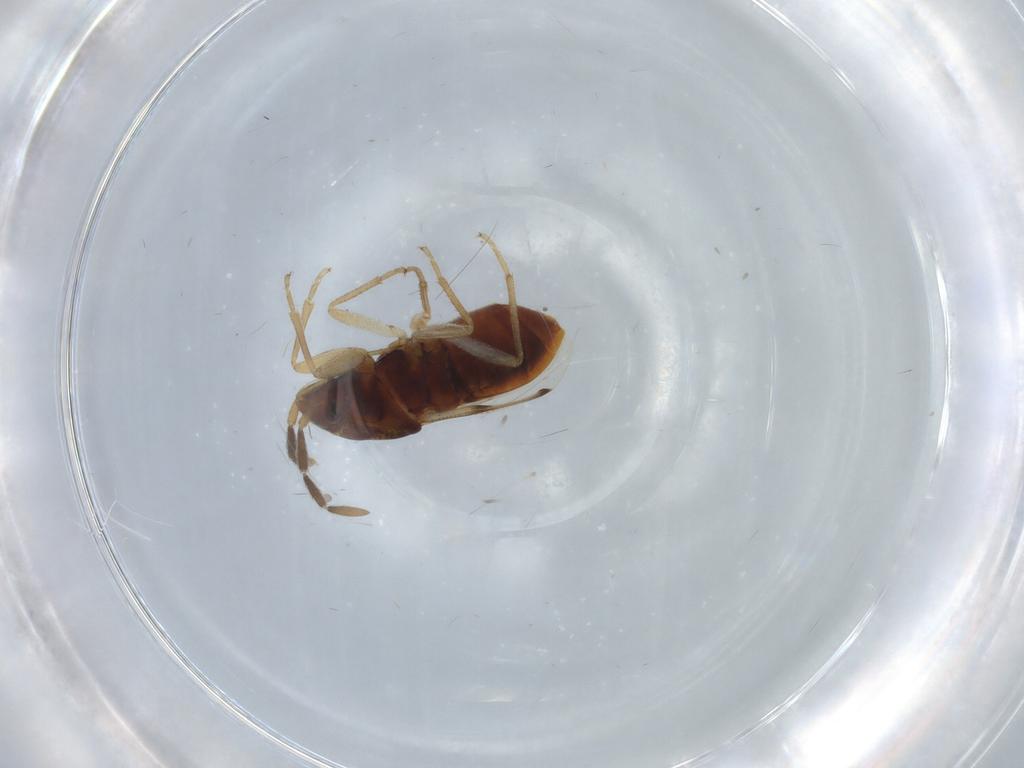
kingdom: Animalia
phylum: Arthropoda
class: Insecta
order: Hemiptera
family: Rhyparochromidae
